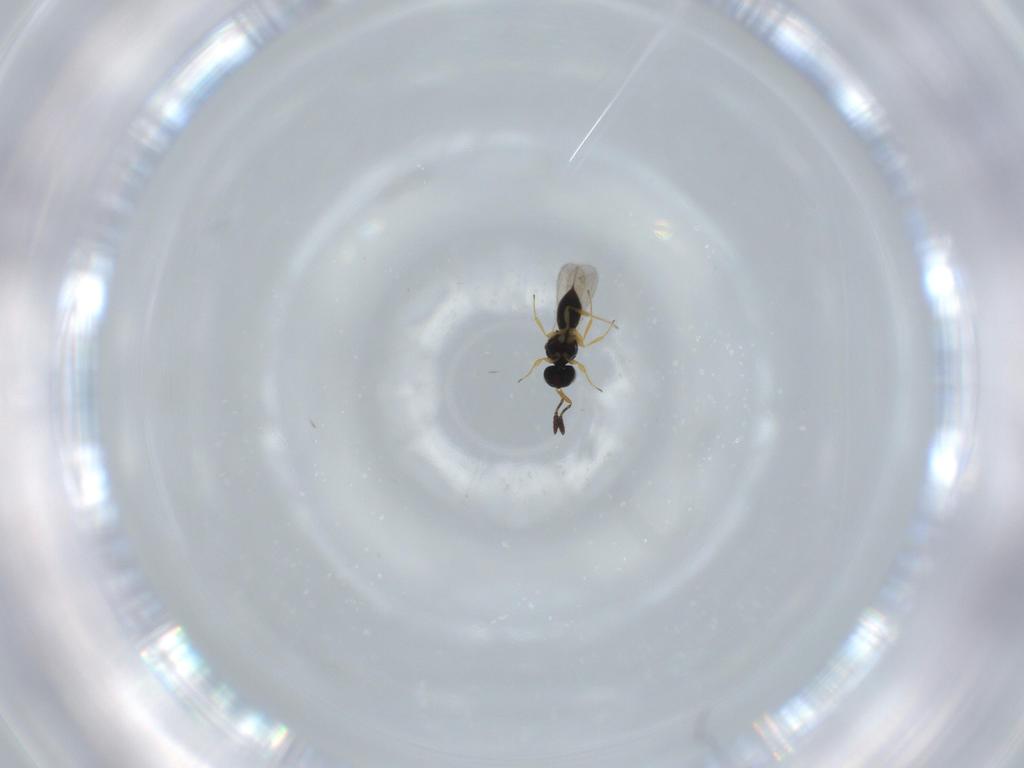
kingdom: Animalia
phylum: Arthropoda
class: Insecta
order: Hymenoptera
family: Scelionidae
